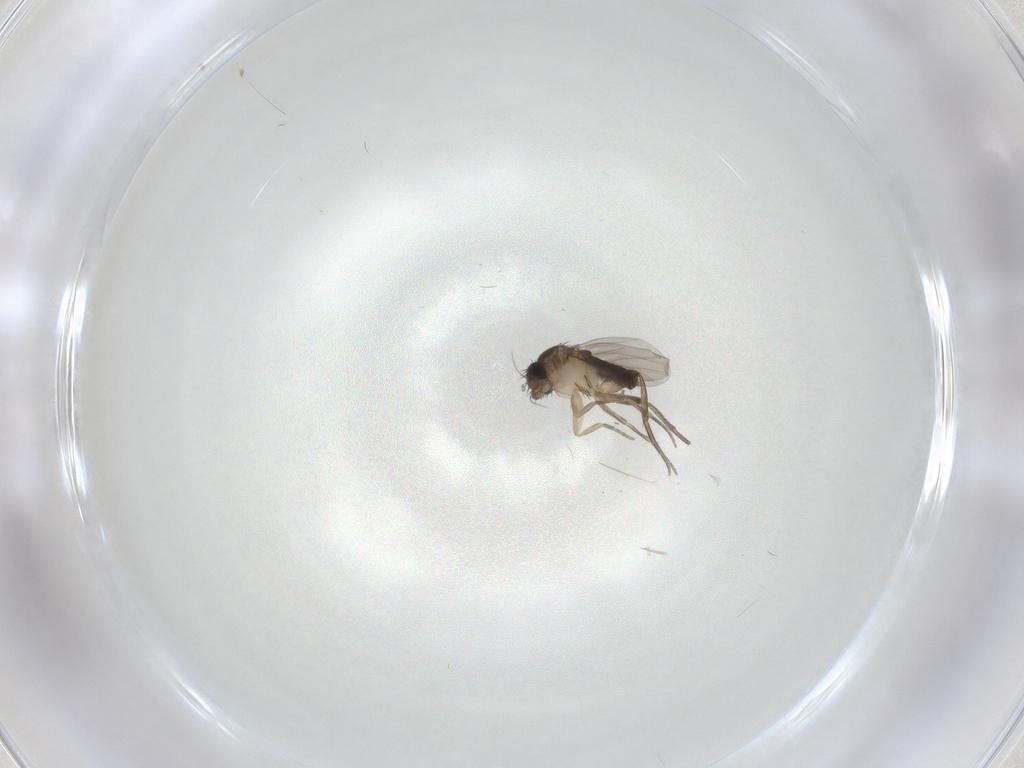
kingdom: Animalia
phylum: Arthropoda
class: Insecta
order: Diptera
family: Phoridae
